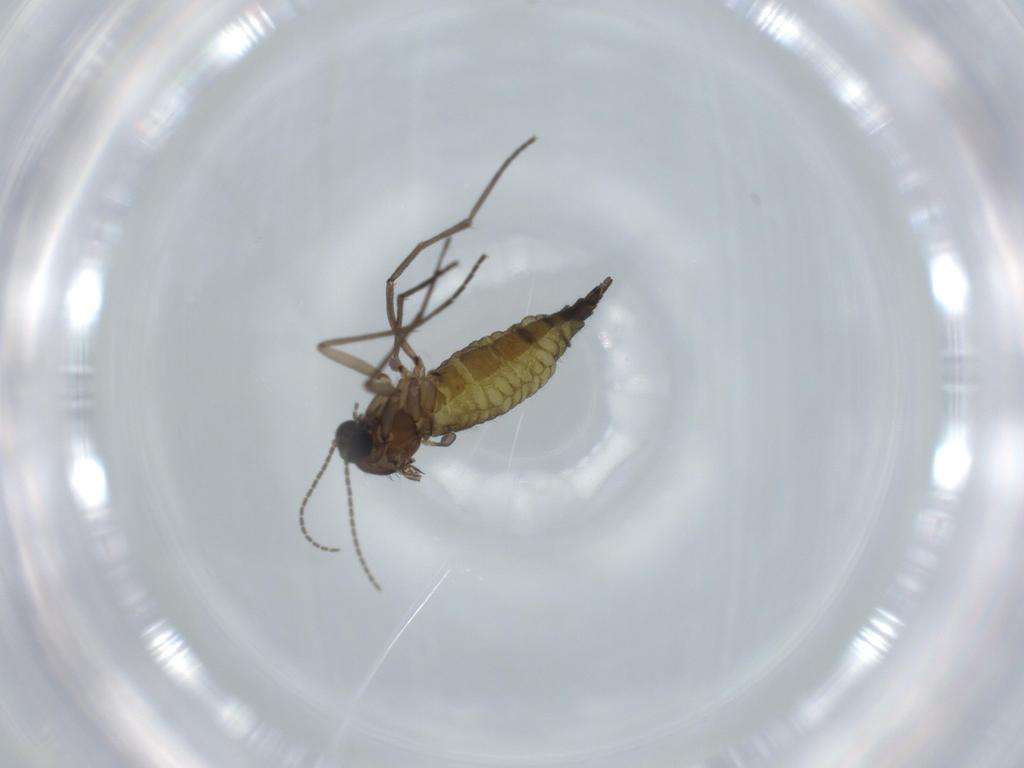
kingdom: Animalia
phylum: Arthropoda
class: Insecta
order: Diptera
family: Sciaridae
